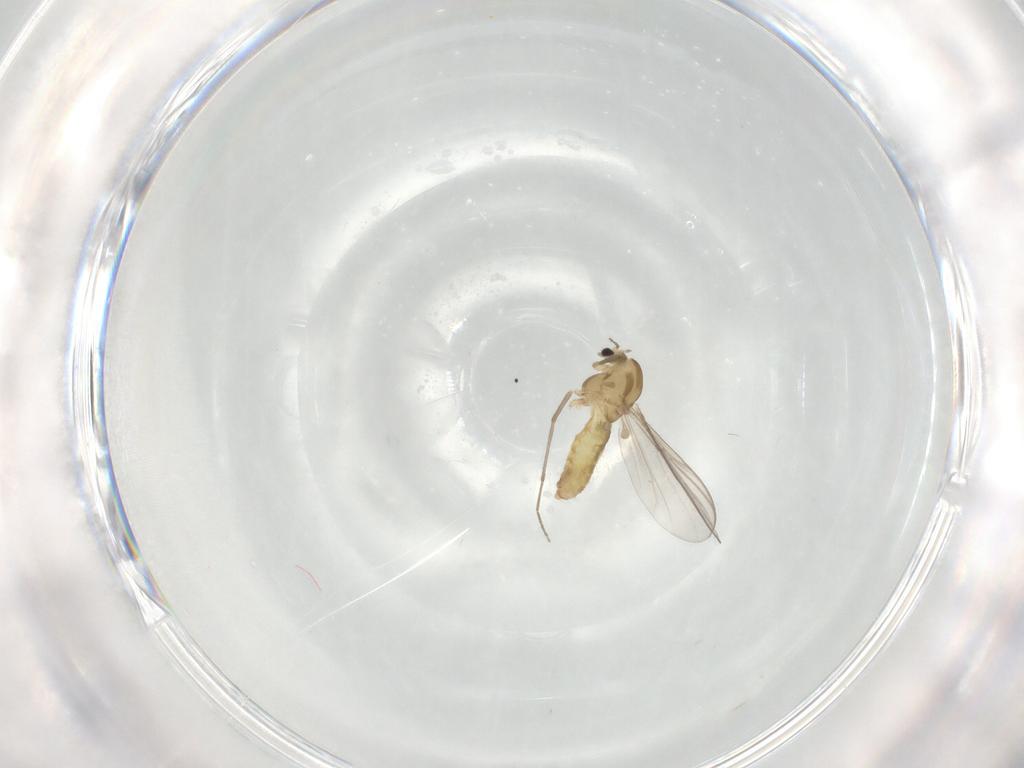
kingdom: Animalia
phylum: Arthropoda
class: Insecta
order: Diptera
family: Chironomidae
